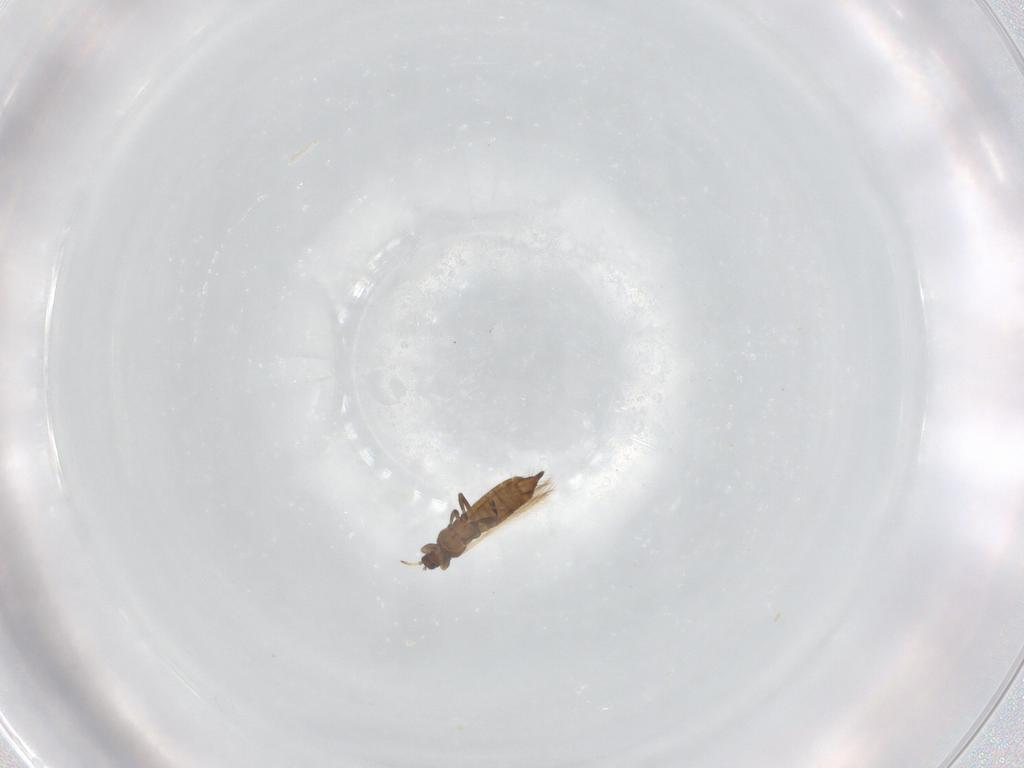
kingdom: Animalia
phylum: Arthropoda
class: Insecta
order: Thysanoptera
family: Thripidae
